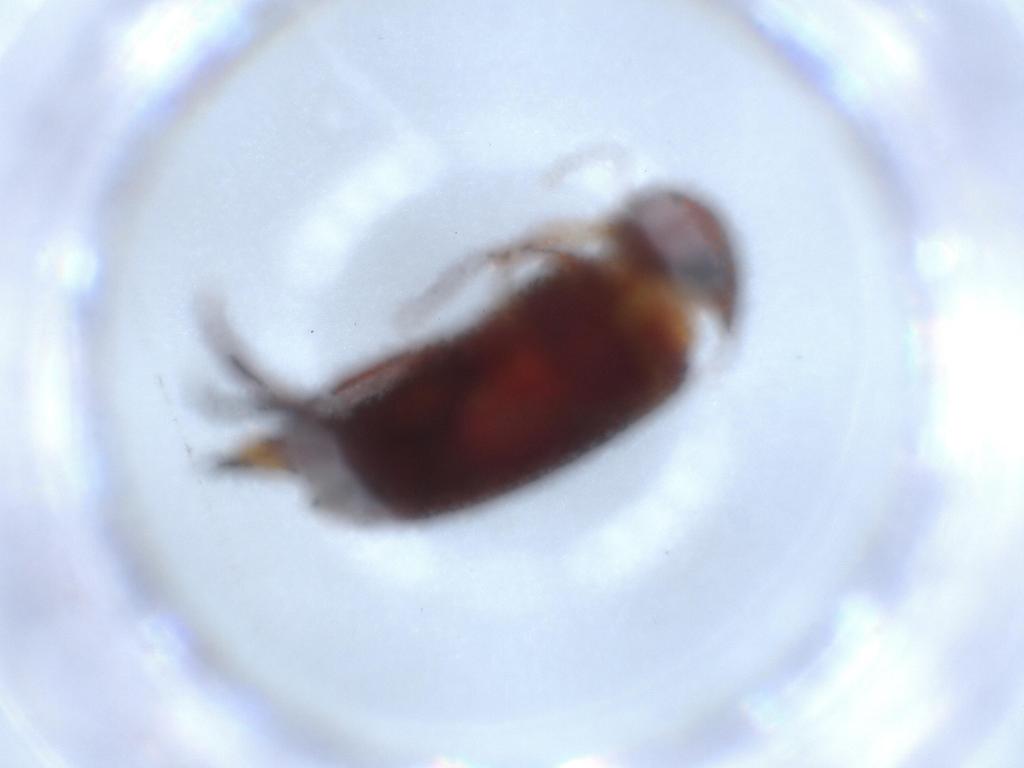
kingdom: Animalia
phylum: Arthropoda
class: Insecta
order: Coleoptera
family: Mordellidae
